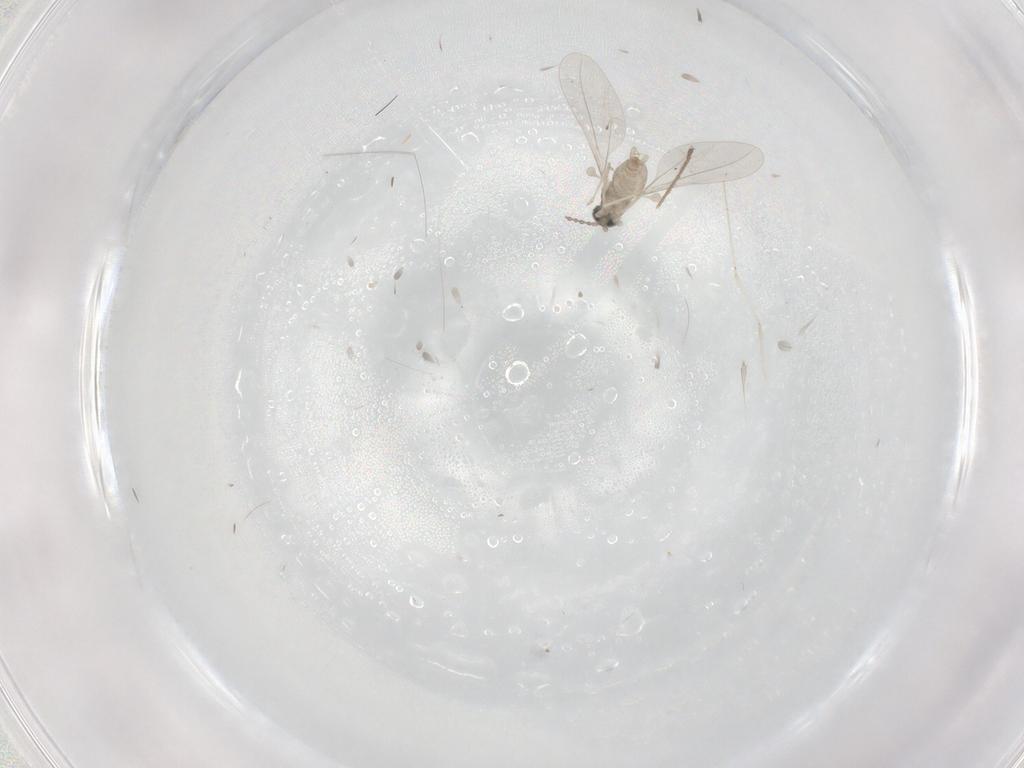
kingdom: Animalia
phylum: Arthropoda
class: Insecta
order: Diptera
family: Limoniidae
